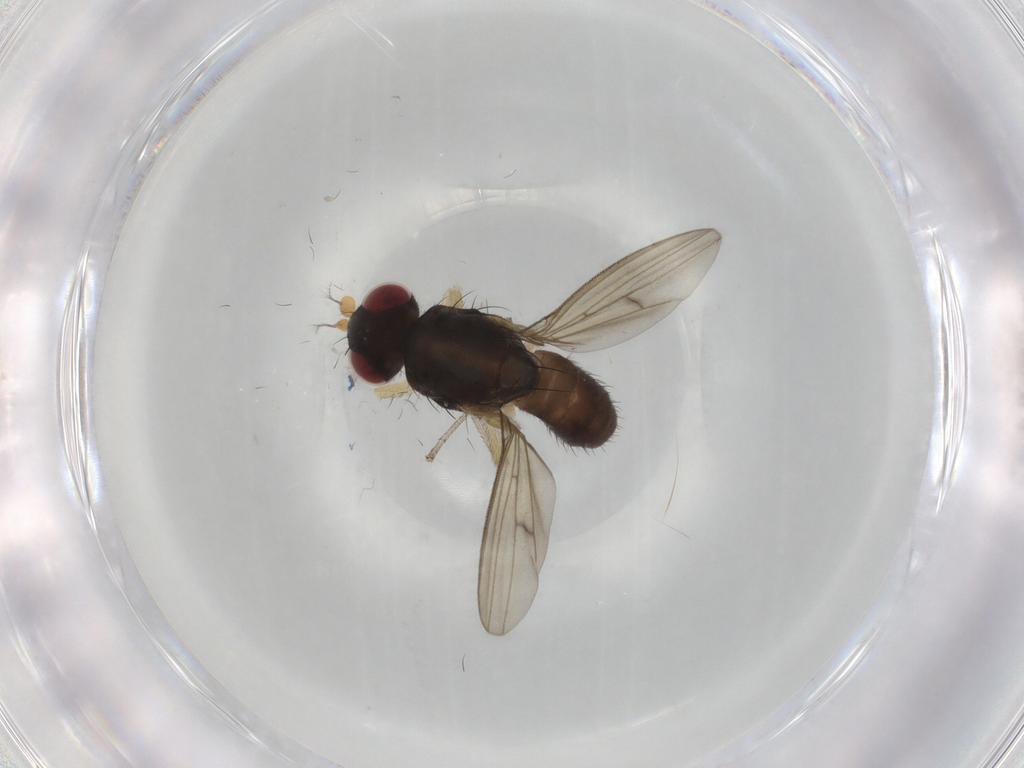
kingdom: Animalia
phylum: Arthropoda
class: Insecta
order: Diptera
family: Syrphidae
